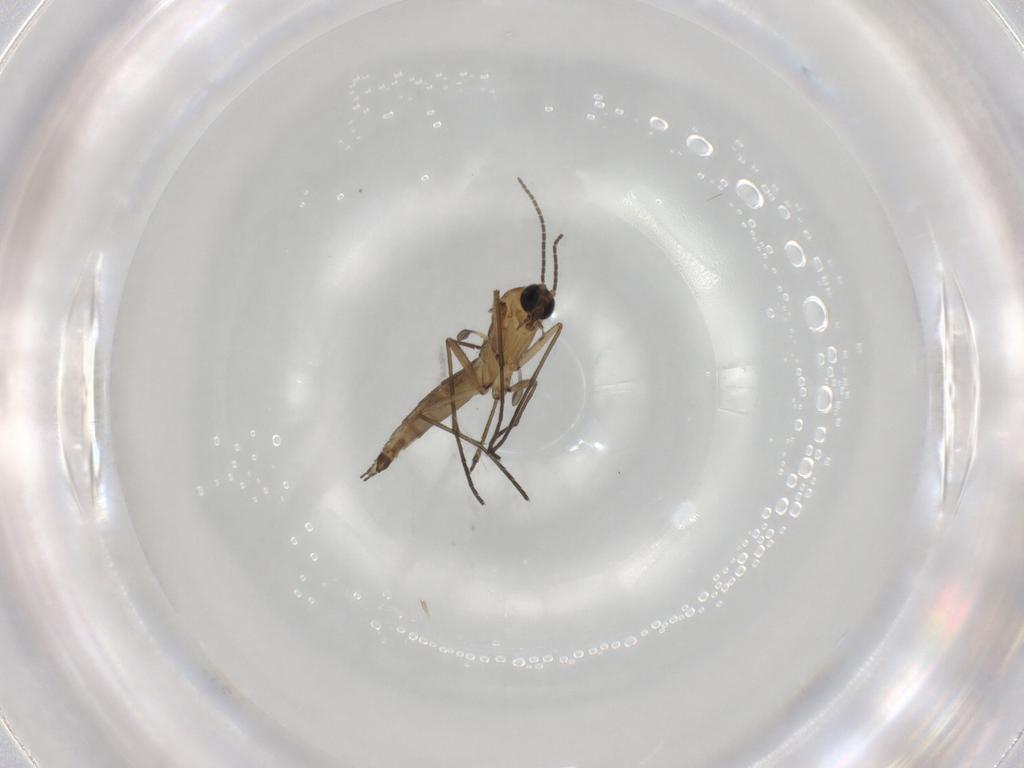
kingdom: Animalia
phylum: Arthropoda
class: Insecta
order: Diptera
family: Sciaridae
